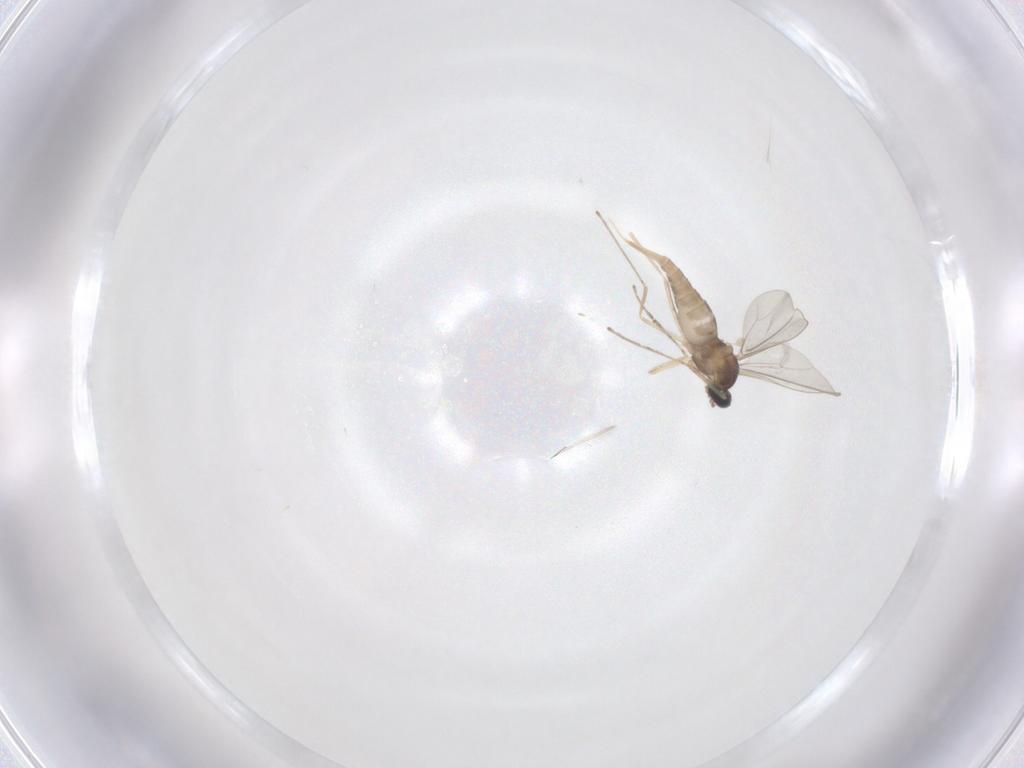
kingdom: Animalia
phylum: Arthropoda
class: Insecta
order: Diptera
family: Cecidomyiidae
